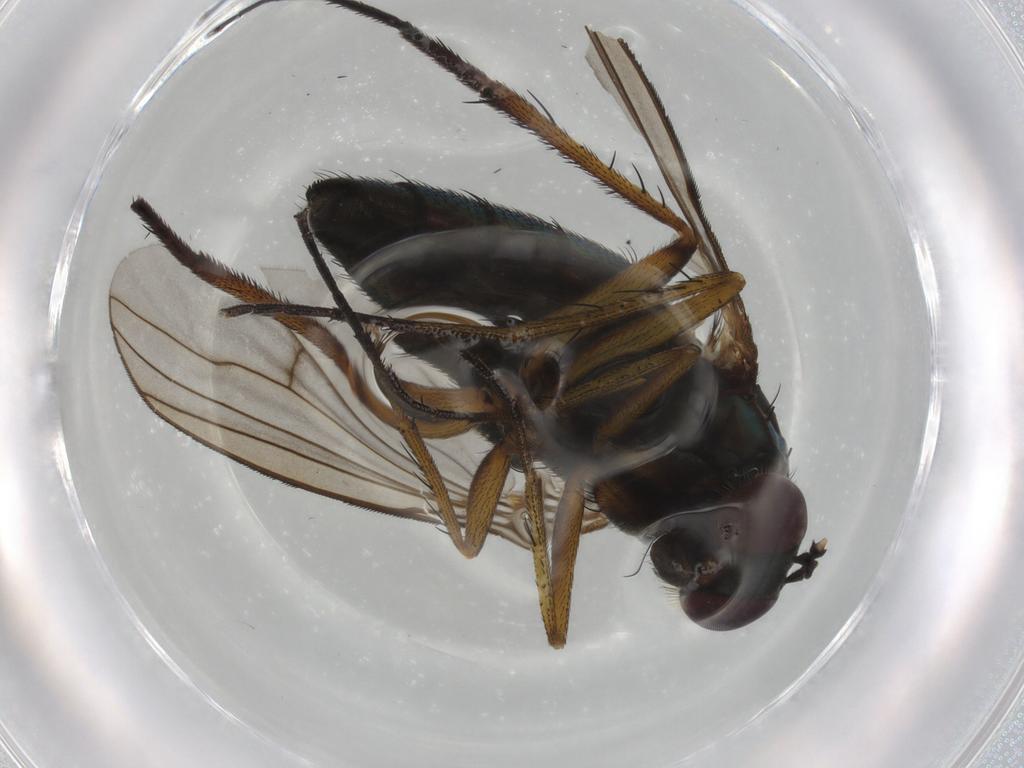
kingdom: Animalia
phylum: Arthropoda
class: Insecta
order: Diptera
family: Dolichopodidae
